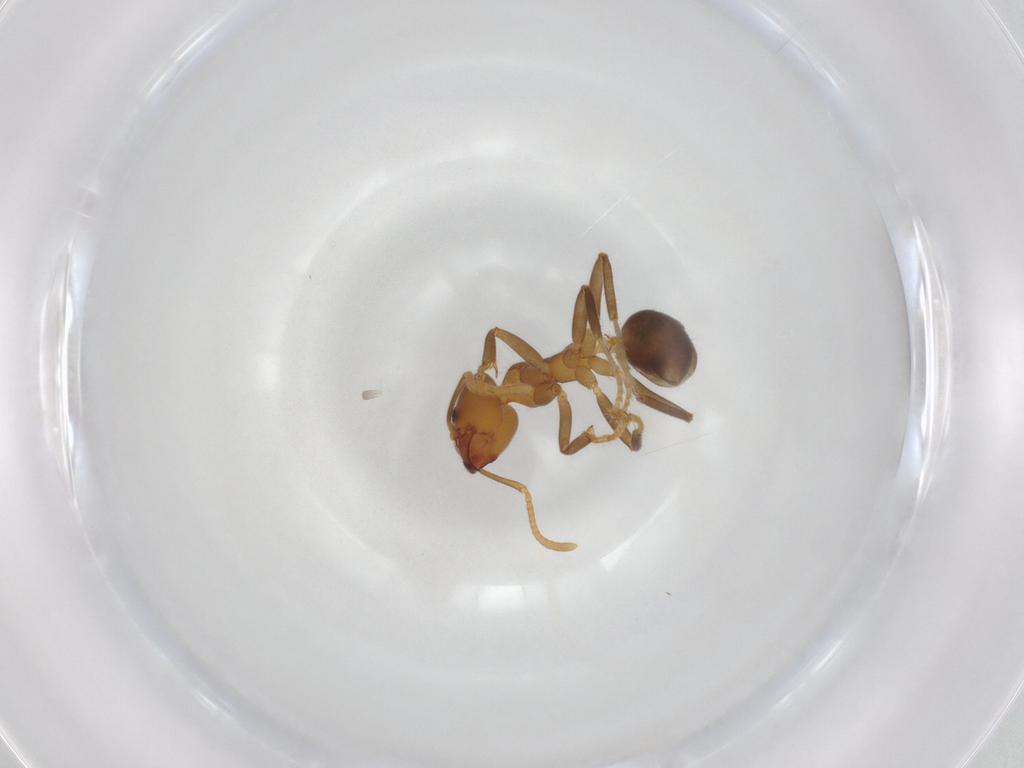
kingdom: Animalia
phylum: Arthropoda
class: Insecta
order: Hymenoptera
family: Formicidae
